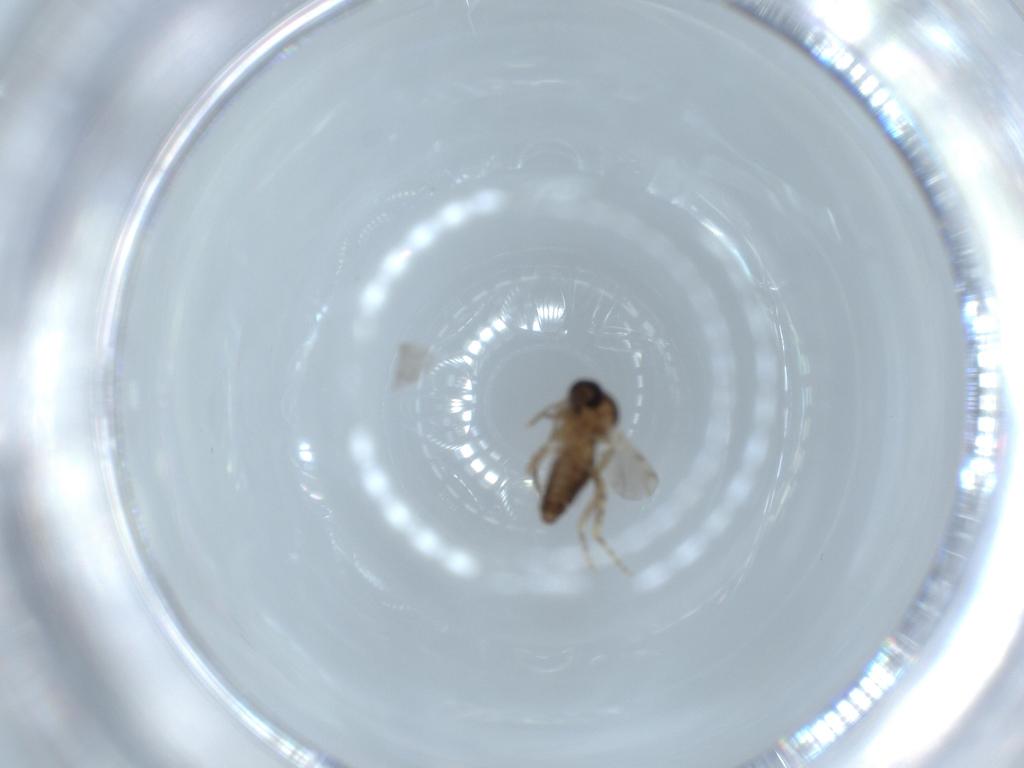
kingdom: Animalia
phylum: Arthropoda
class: Insecta
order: Diptera
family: Ceratopogonidae
